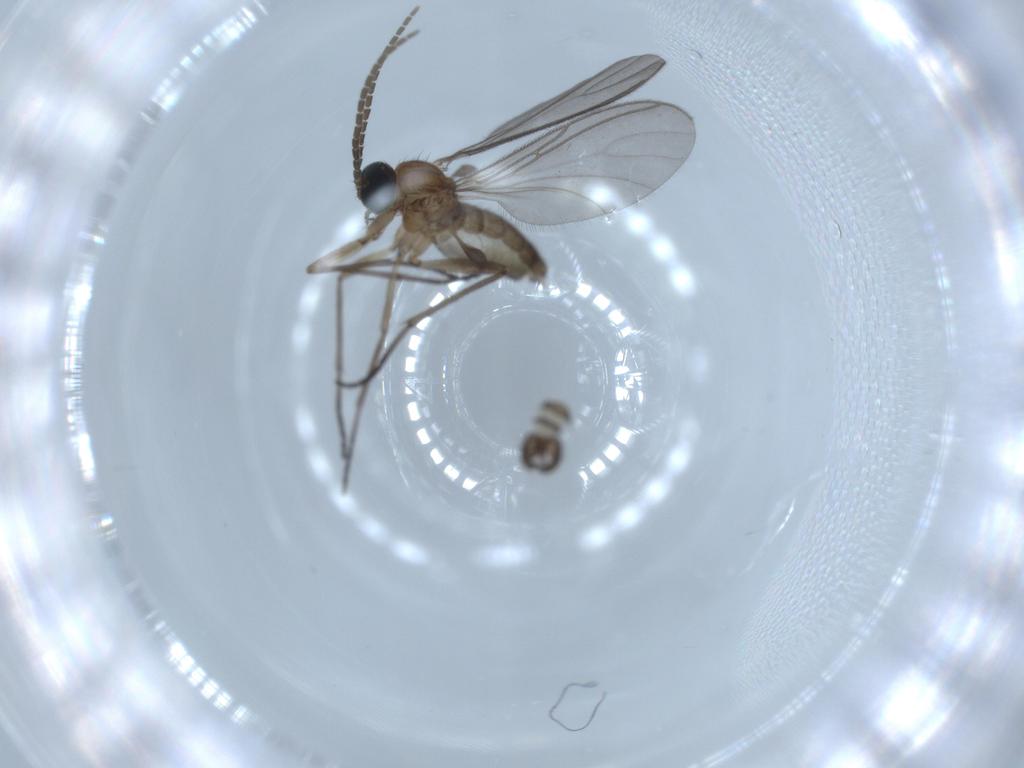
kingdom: Animalia
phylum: Arthropoda
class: Insecta
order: Diptera
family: Sciaridae
